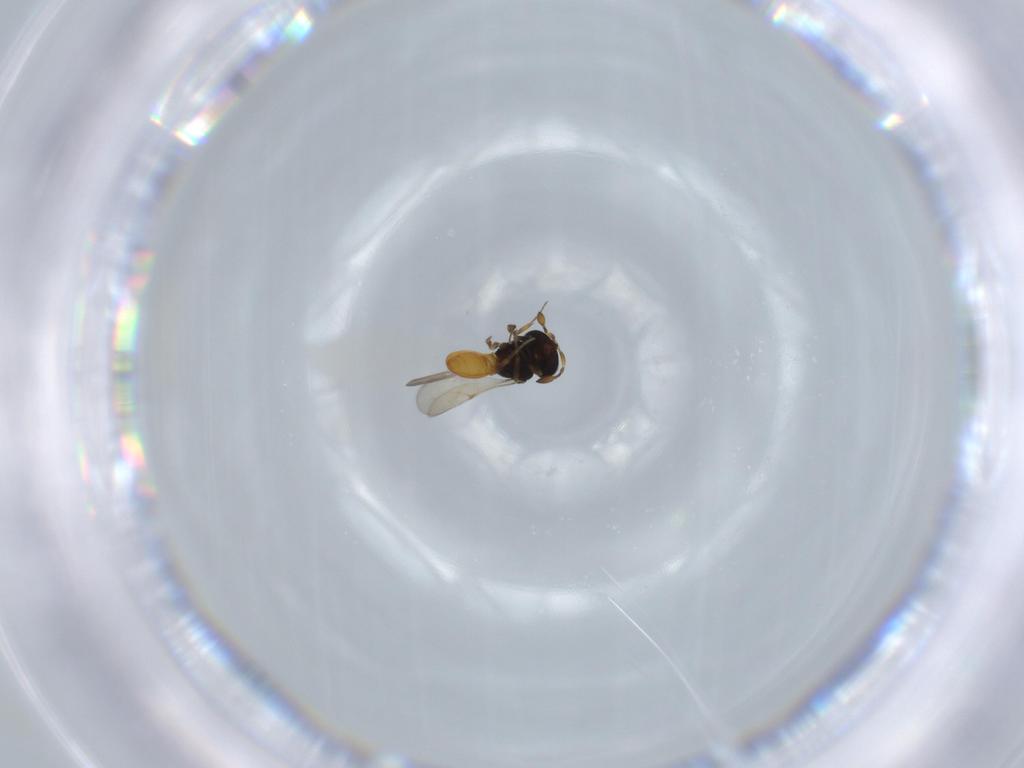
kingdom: Animalia
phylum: Arthropoda
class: Insecta
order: Hymenoptera
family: Scelionidae
